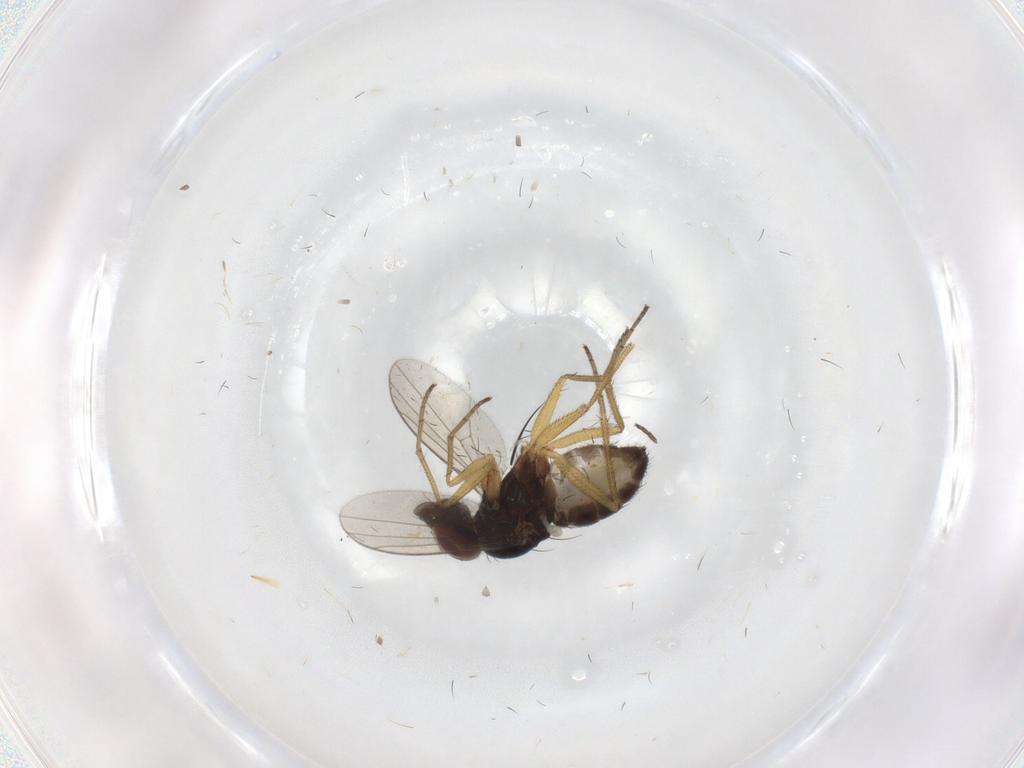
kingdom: Animalia
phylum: Arthropoda
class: Insecta
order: Diptera
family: Dolichopodidae
